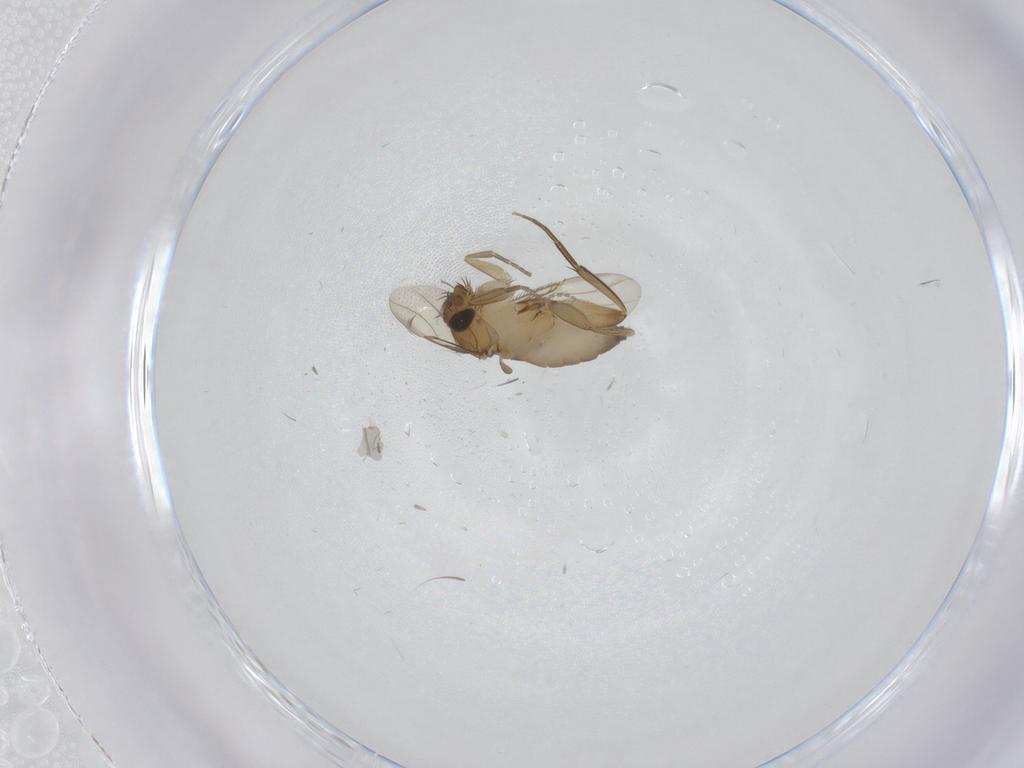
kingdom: Animalia
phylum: Arthropoda
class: Insecta
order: Diptera
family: Chironomidae
